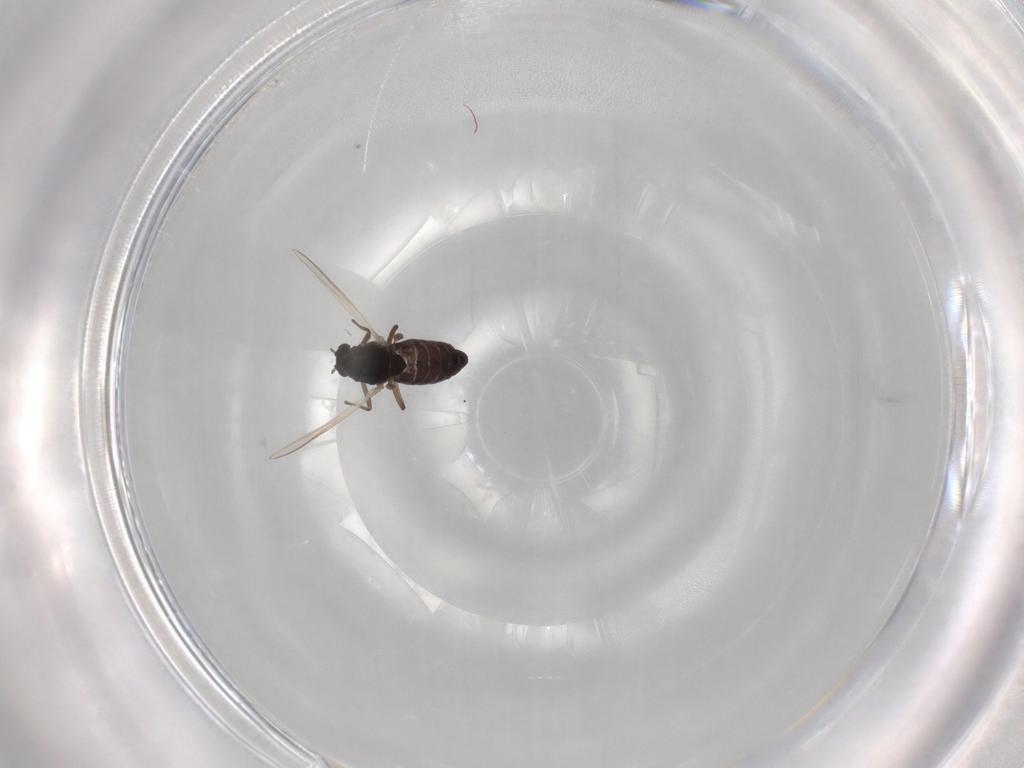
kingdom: Animalia
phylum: Arthropoda
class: Insecta
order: Diptera
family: Chironomidae
